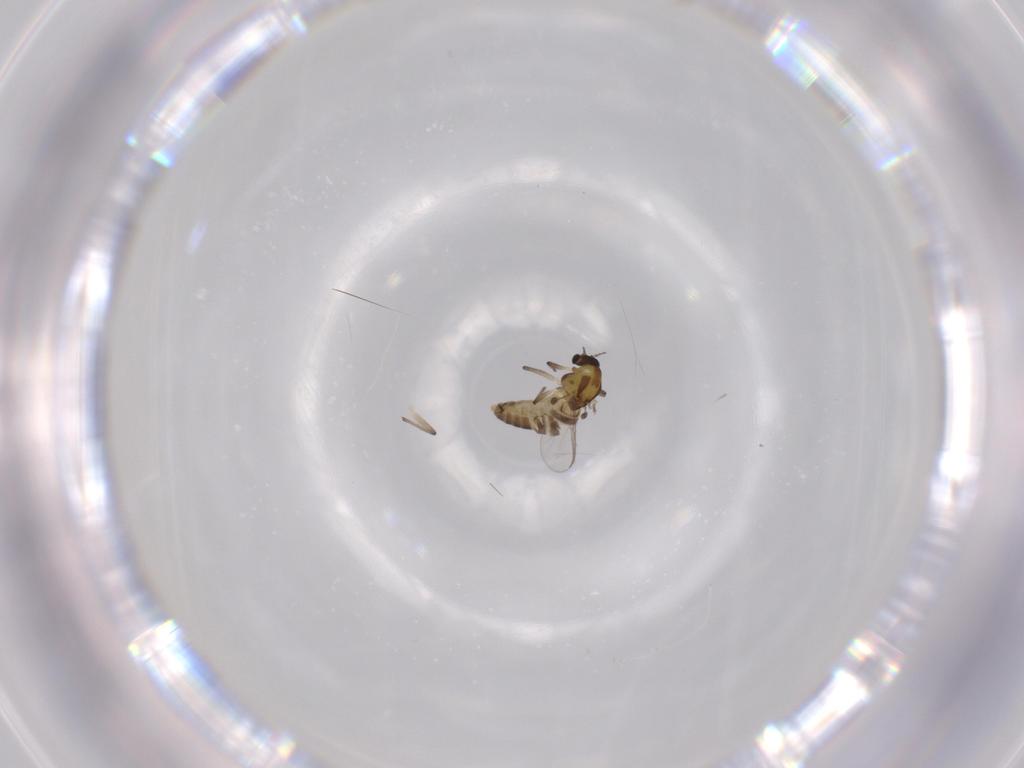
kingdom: Animalia
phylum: Arthropoda
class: Insecta
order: Diptera
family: Chironomidae
